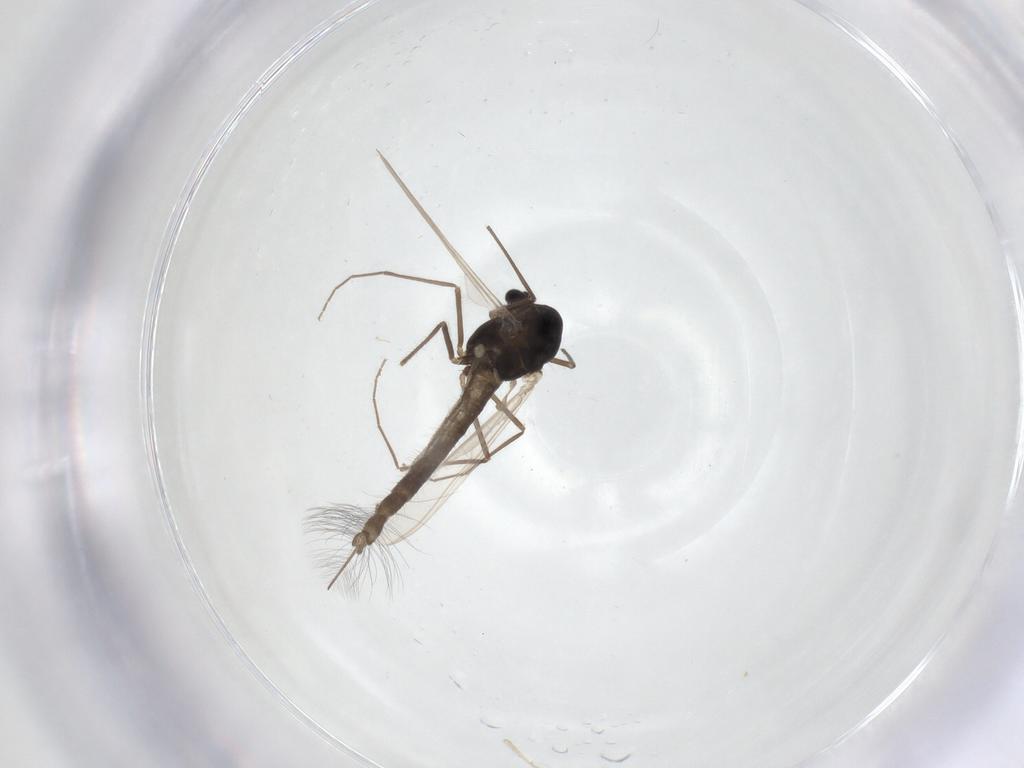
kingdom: Animalia
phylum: Arthropoda
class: Insecta
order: Diptera
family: Chironomidae
